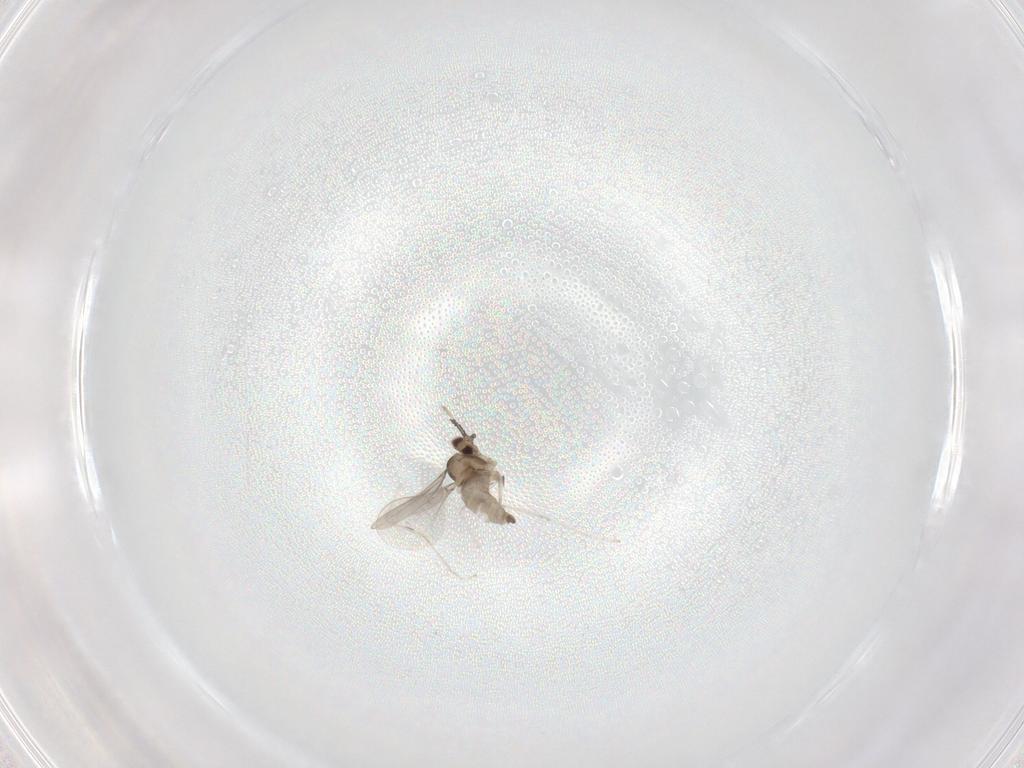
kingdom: Animalia
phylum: Arthropoda
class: Insecta
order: Diptera
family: Cecidomyiidae
